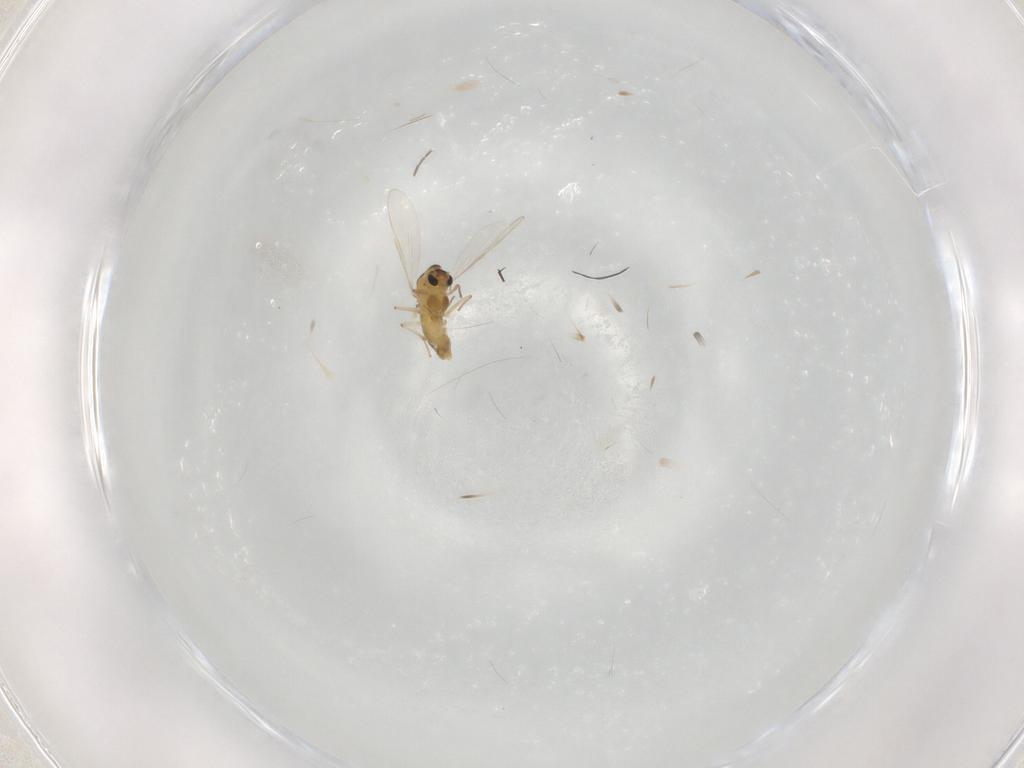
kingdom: Animalia
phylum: Arthropoda
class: Insecta
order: Diptera
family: Chironomidae
